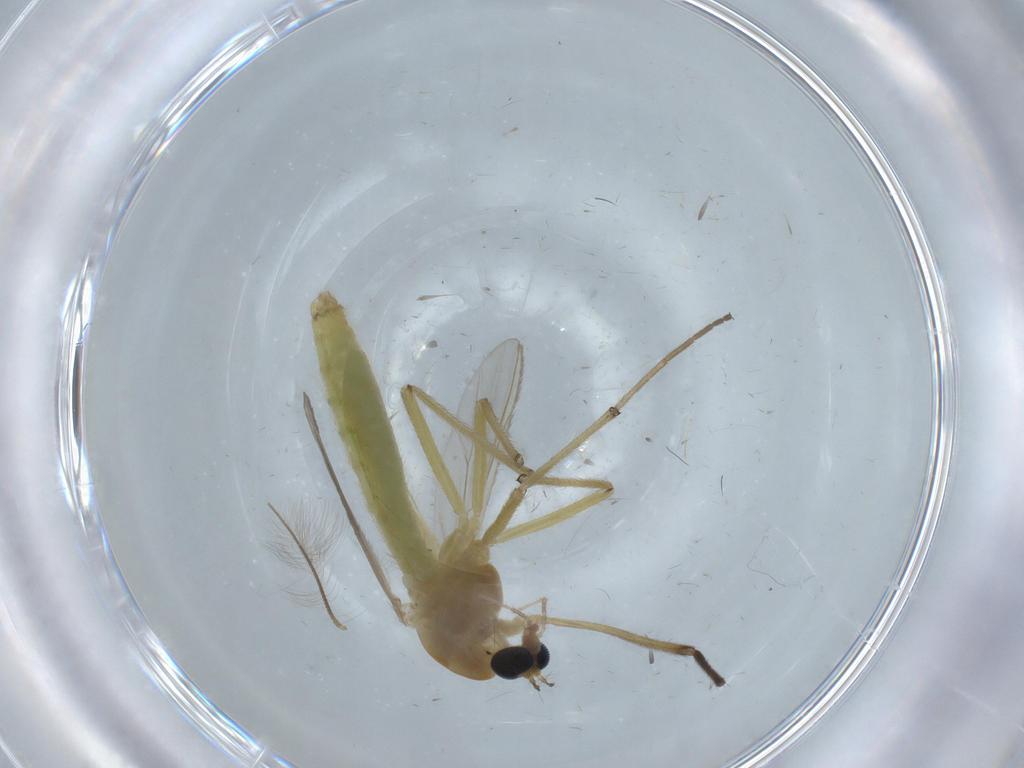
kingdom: Animalia
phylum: Arthropoda
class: Insecta
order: Diptera
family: Chironomidae
